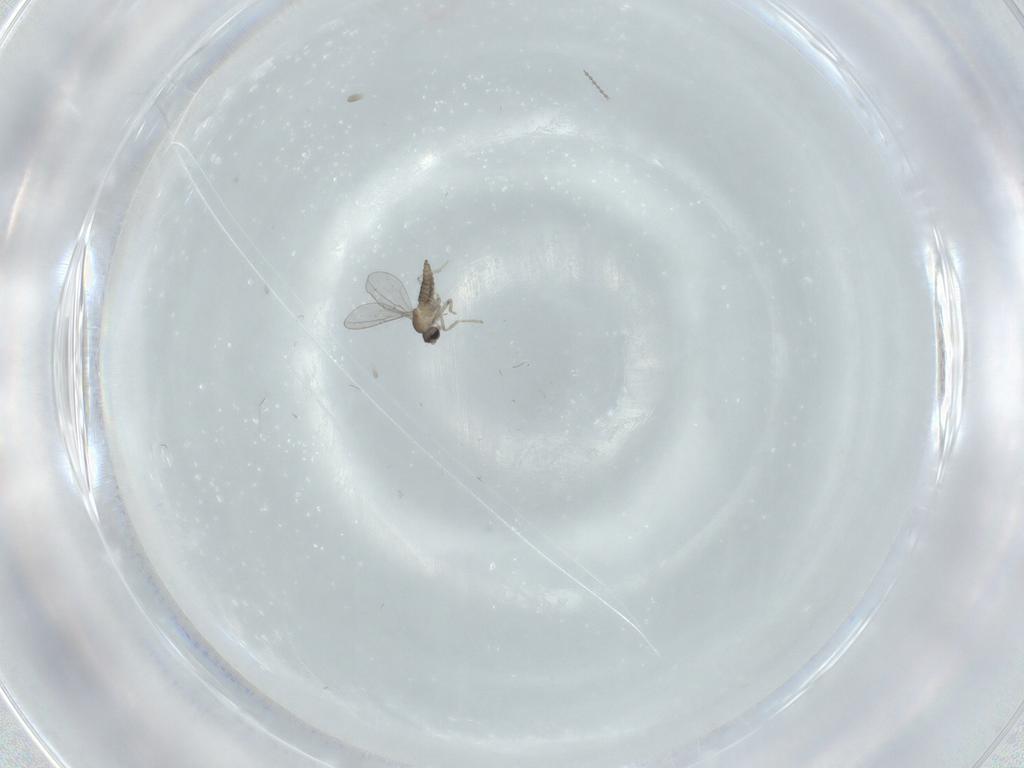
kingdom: Animalia
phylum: Arthropoda
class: Insecta
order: Diptera
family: Cecidomyiidae
